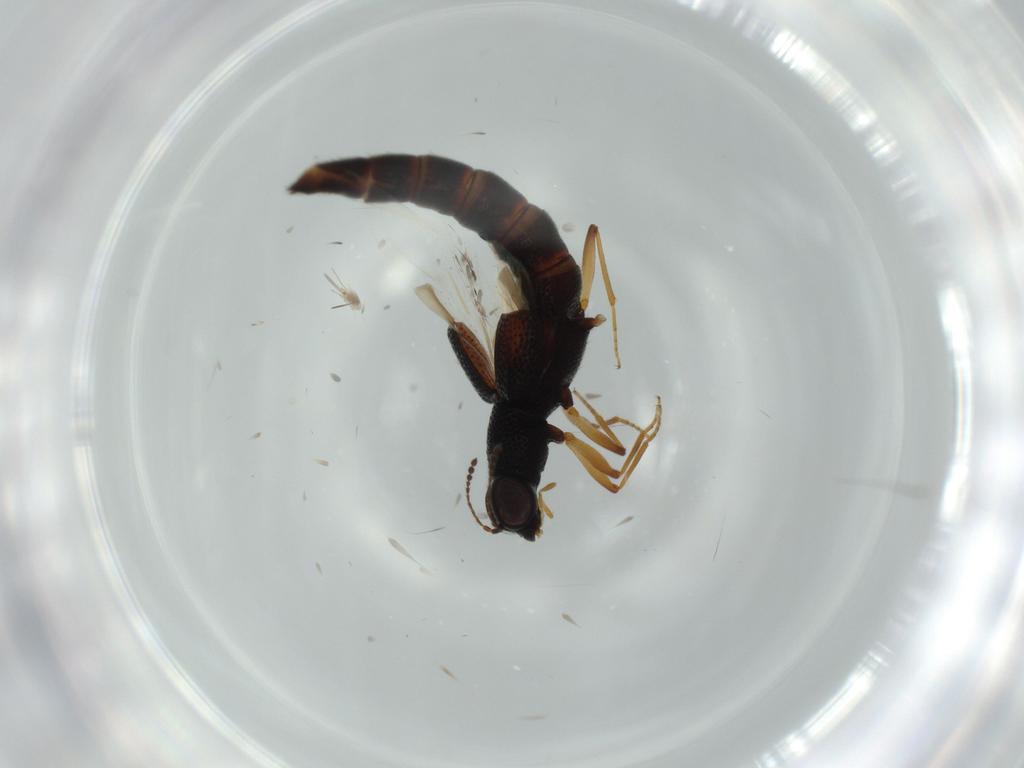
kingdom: Animalia
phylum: Arthropoda
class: Insecta
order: Coleoptera
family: Staphylinidae
